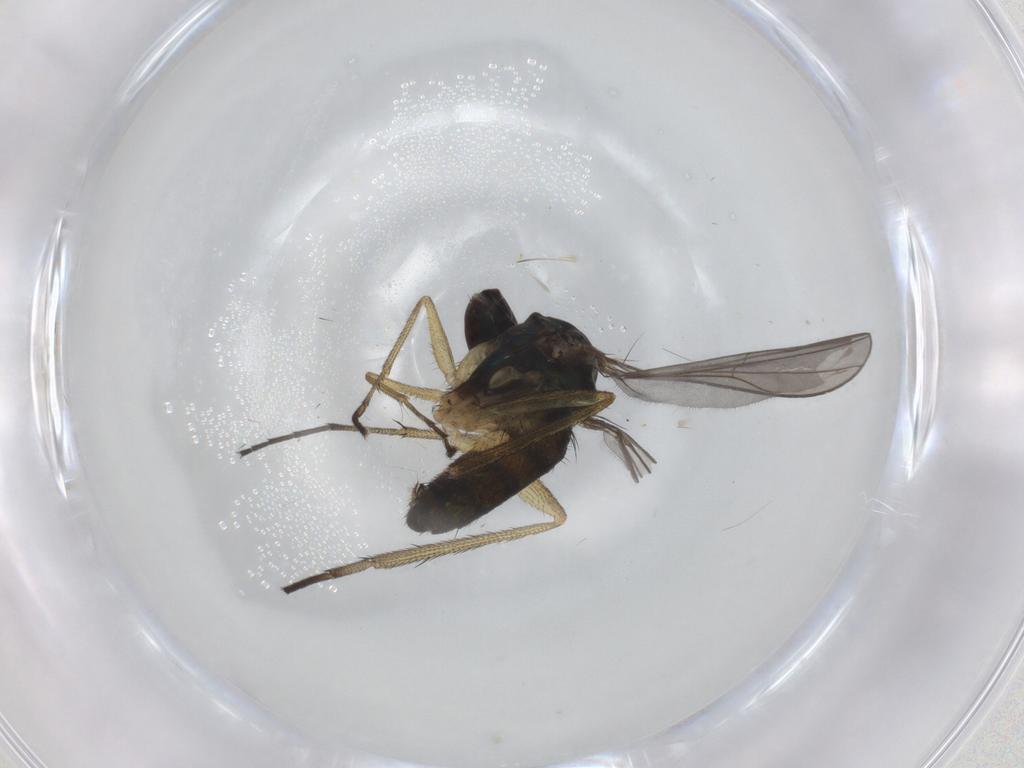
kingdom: Animalia
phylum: Arthropoda
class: Insecta
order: Diptera
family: Dolichopodidae
